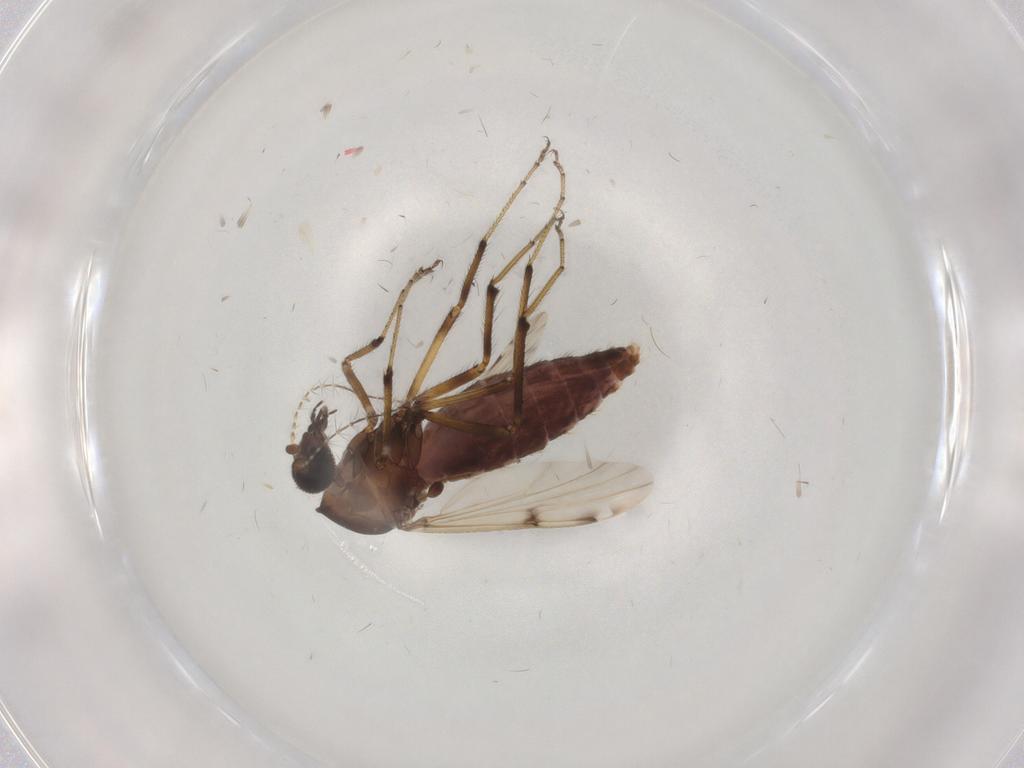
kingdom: Animalia
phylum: Arthropoda
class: Insecta
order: Diptera
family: Ceratopogonidae
